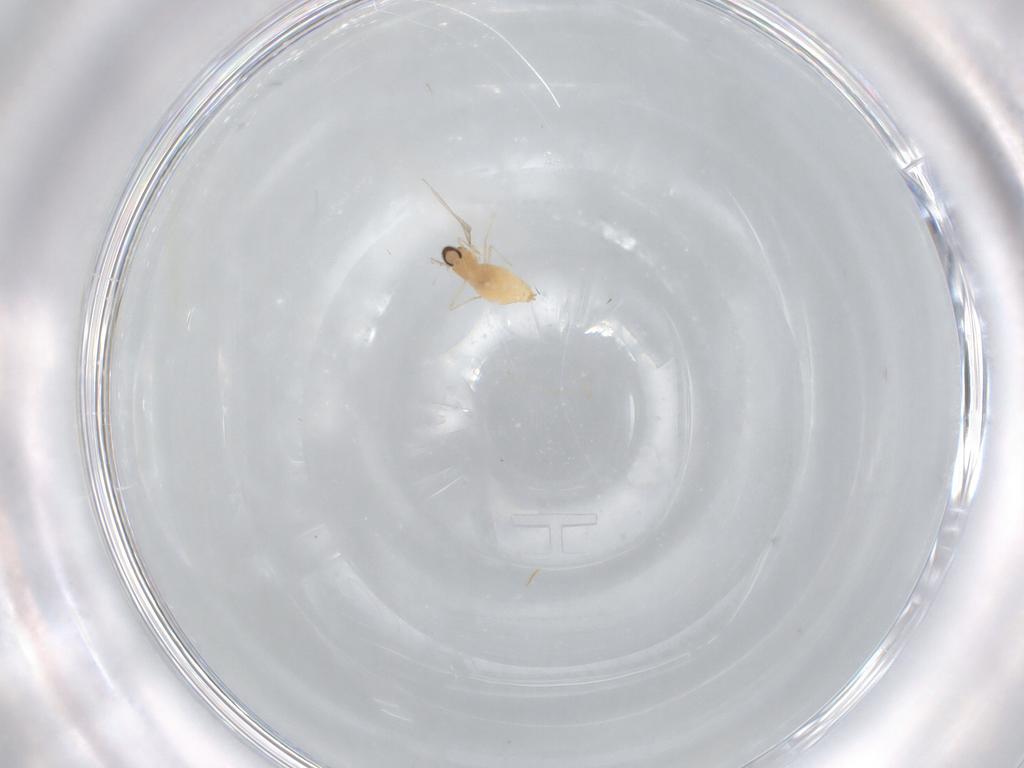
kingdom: Animalia
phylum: Arthropoda
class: Insecta
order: Diptera
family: Cecidomyiidae
